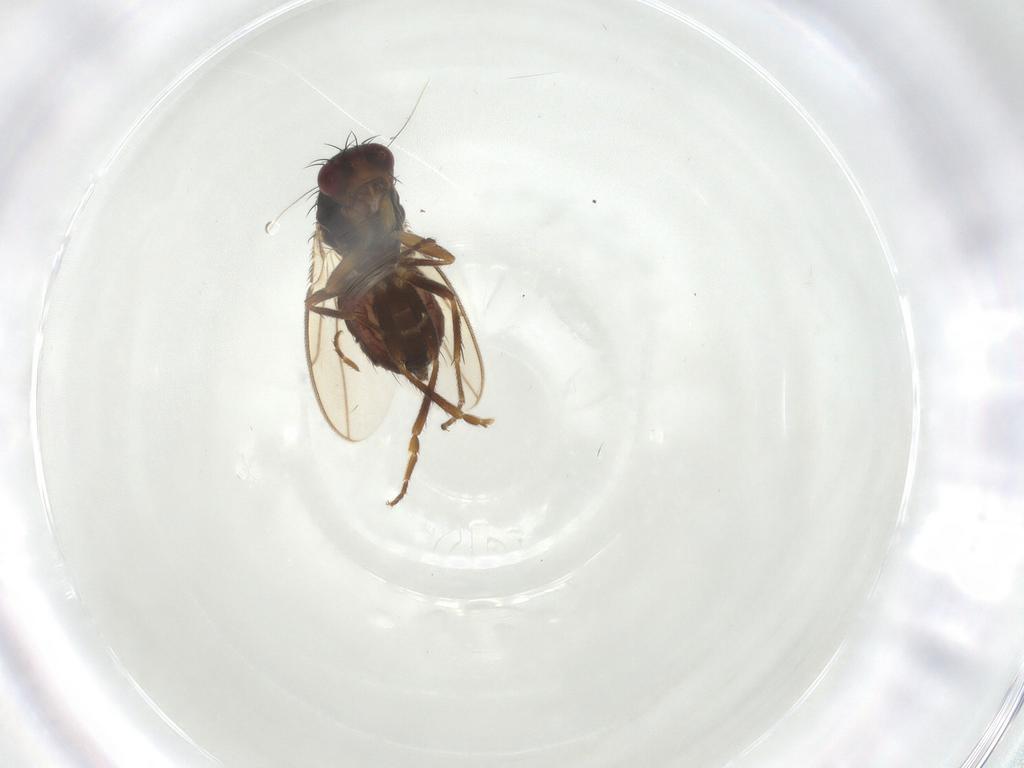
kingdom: Animalia
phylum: Arthropoda
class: Insecta
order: Diptera
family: Sphaeroceridae
